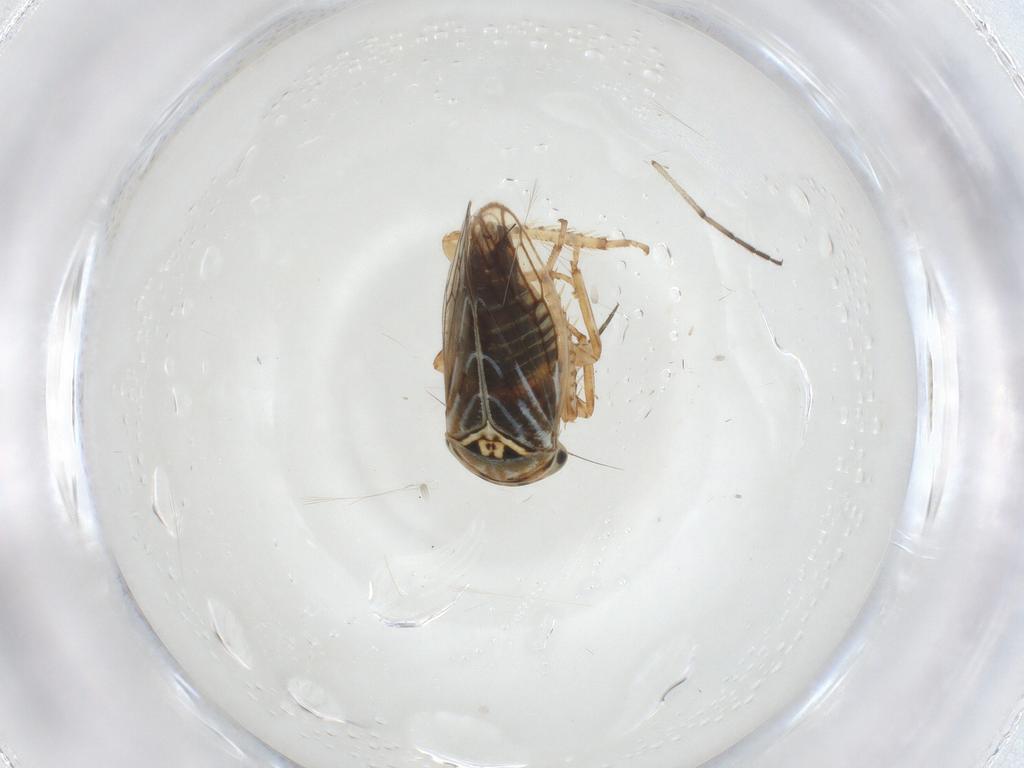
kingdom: Animalia
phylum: Arthropoda
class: Insecta
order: Hemiptera
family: Cicadellidae
